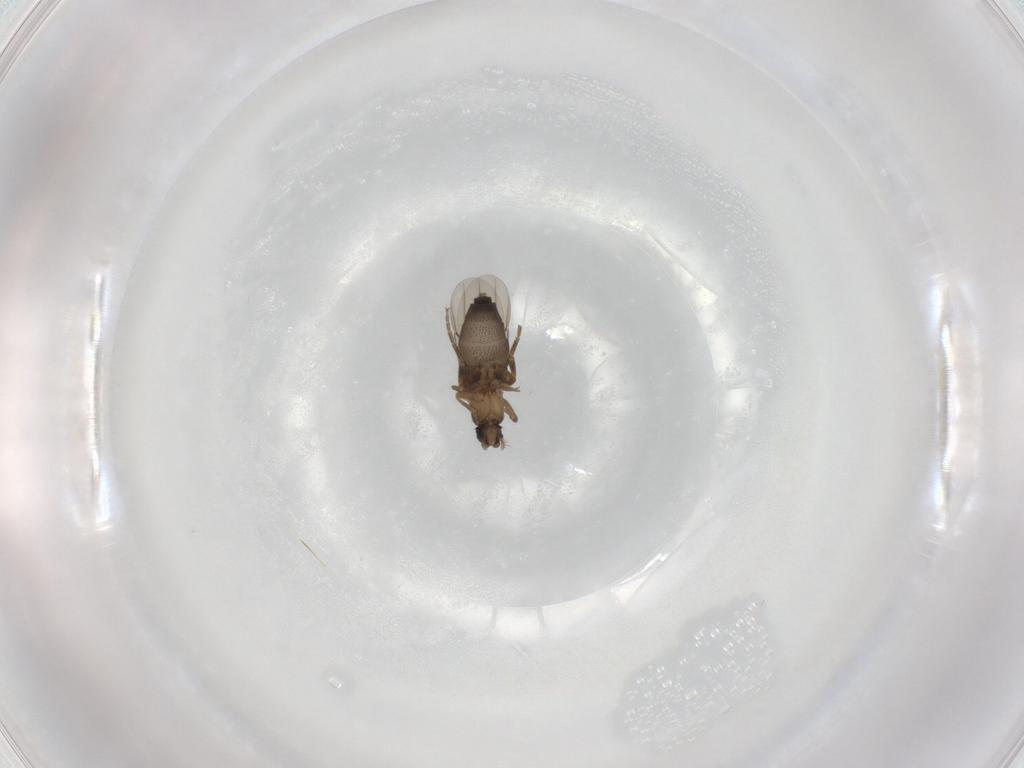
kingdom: Animalia
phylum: Arthropoda
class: Insecta
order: Diptera
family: Phoridae
